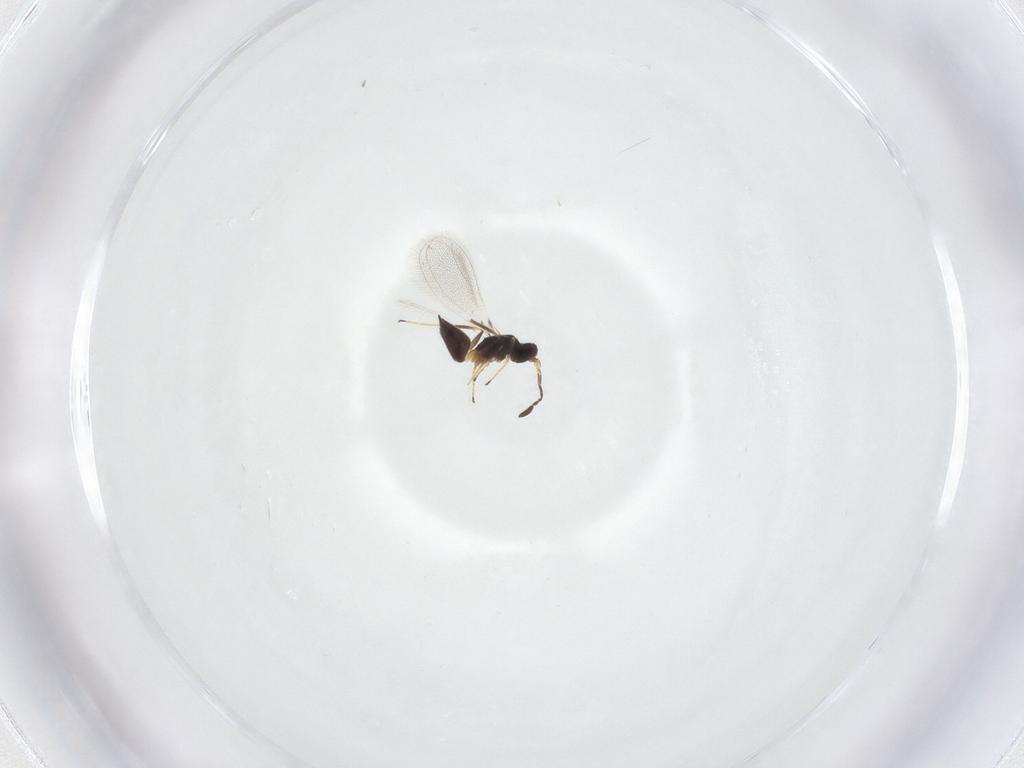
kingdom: Animalia
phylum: Arthropoda
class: Insecta
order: Hymenoptera
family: Mymaridae
